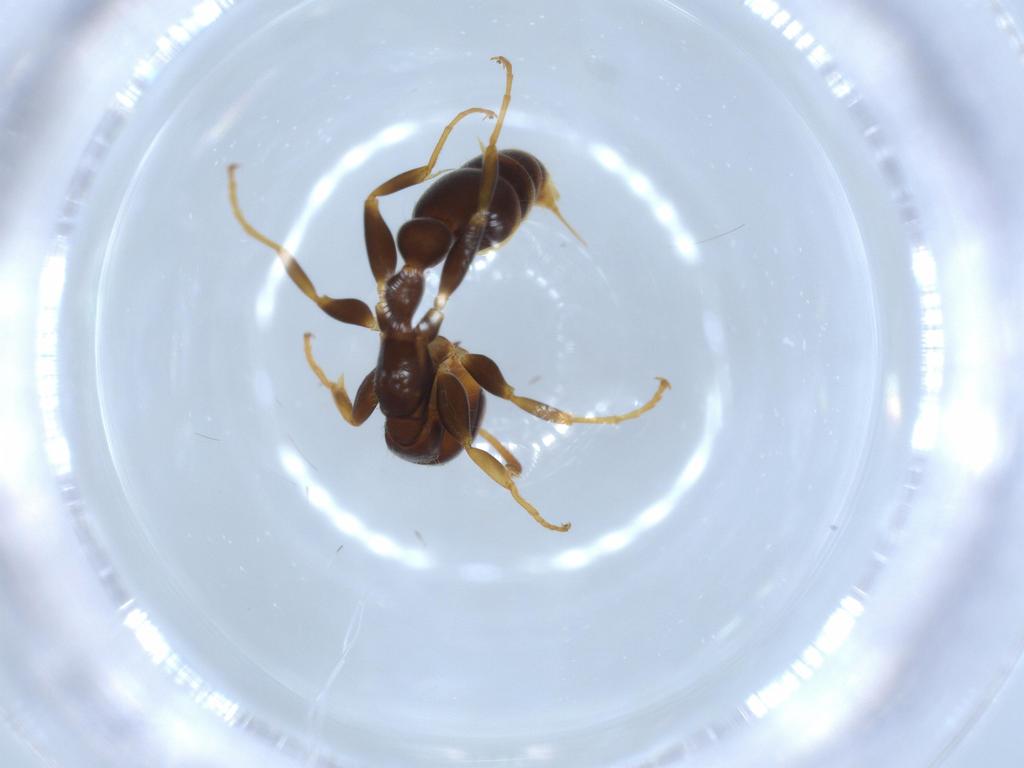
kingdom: Animalia
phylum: Arthropoda
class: Insecta
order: Hymenoptera
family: Formicidae
